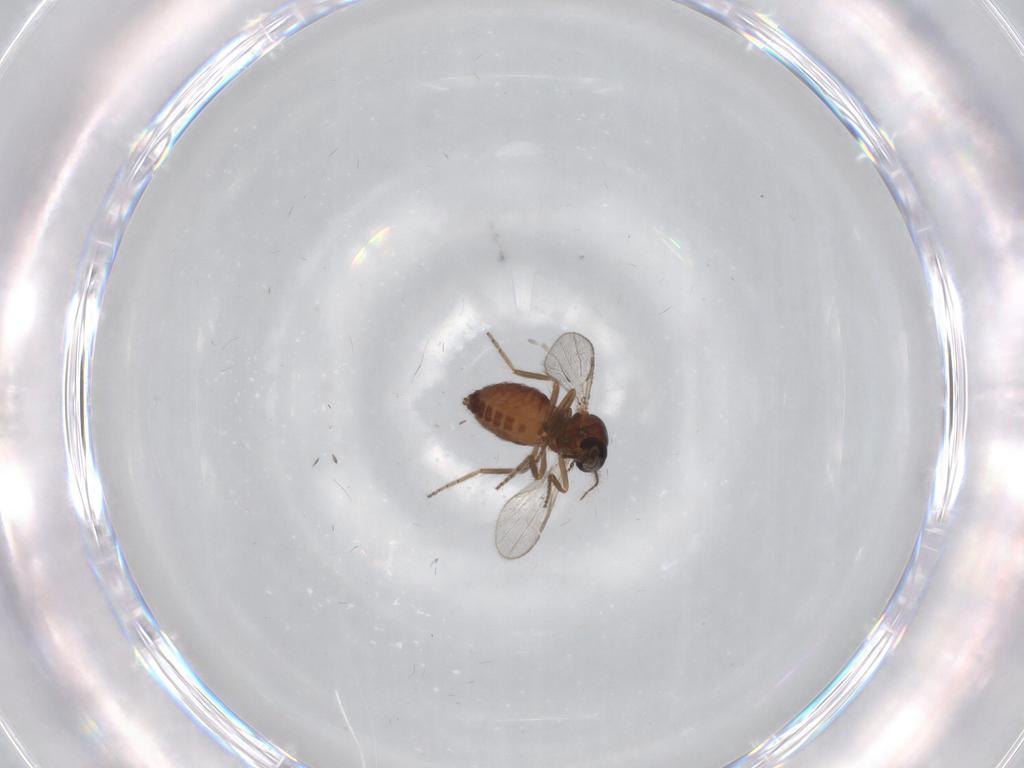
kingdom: Animalia
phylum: Arthropoda
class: Insecta
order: Diptera
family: Ceratopogonidae
